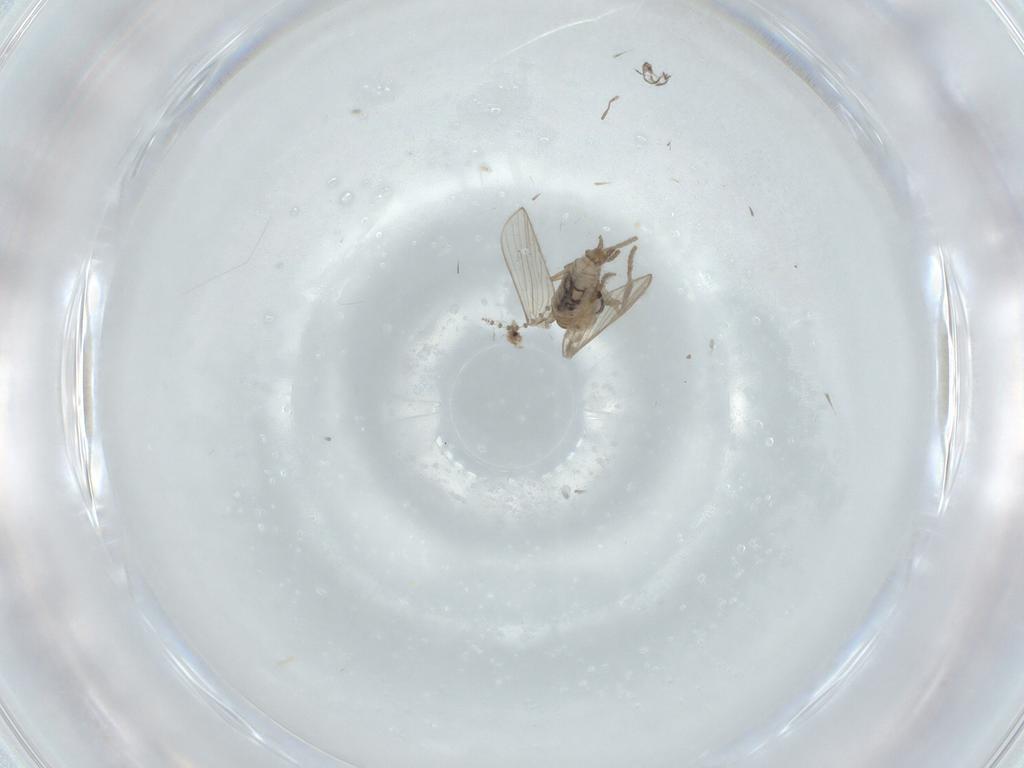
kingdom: Animalia
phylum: Arthropoda
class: Insecta
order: Diptera
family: Psychodidae
